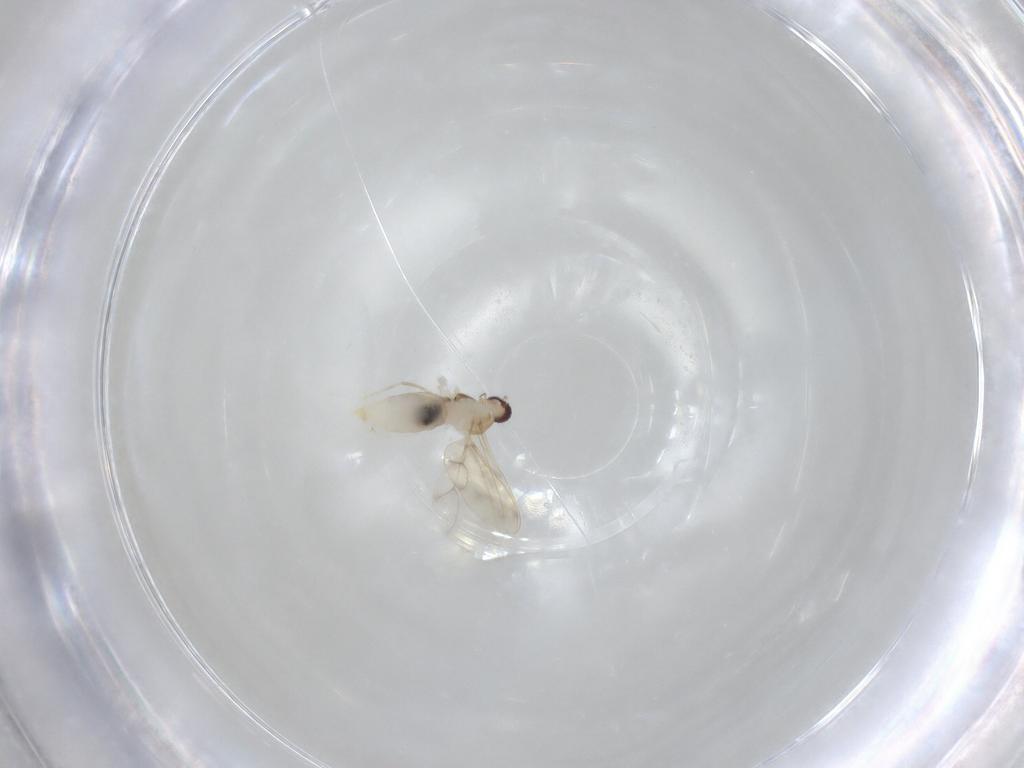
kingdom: Animalia
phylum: Arthropoda
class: Insecta
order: Diptera
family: Cecidomyiidae
